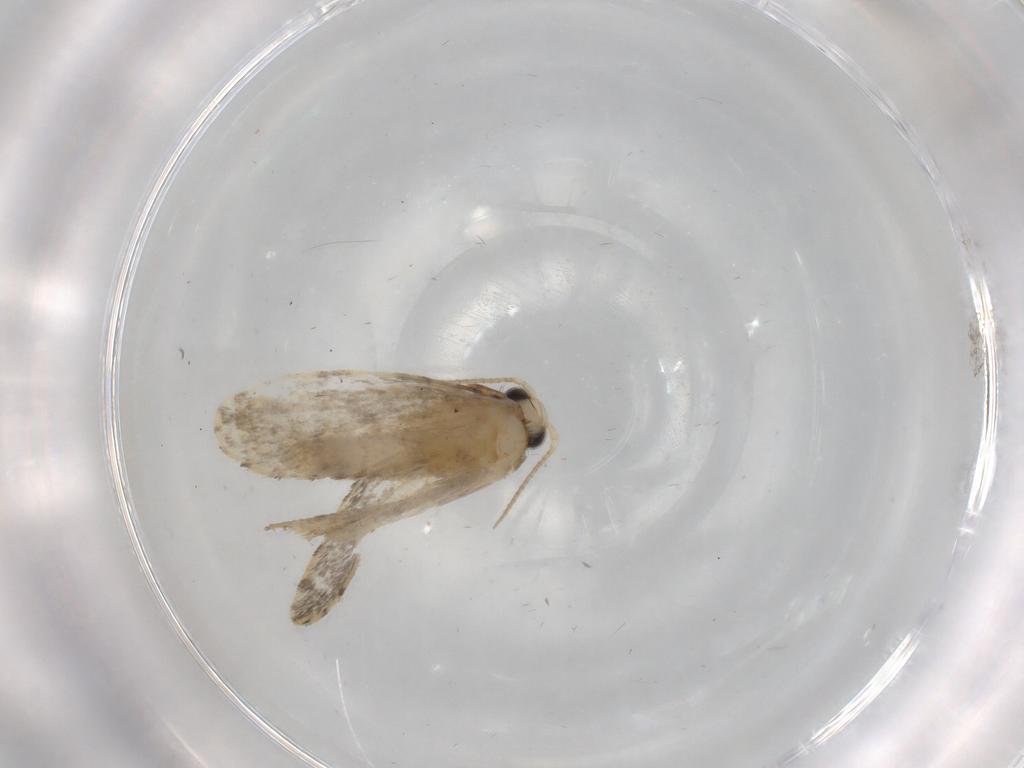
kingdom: Animalia
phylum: Arthropoda
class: Insecta
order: Lepidoptera
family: Psychidae
